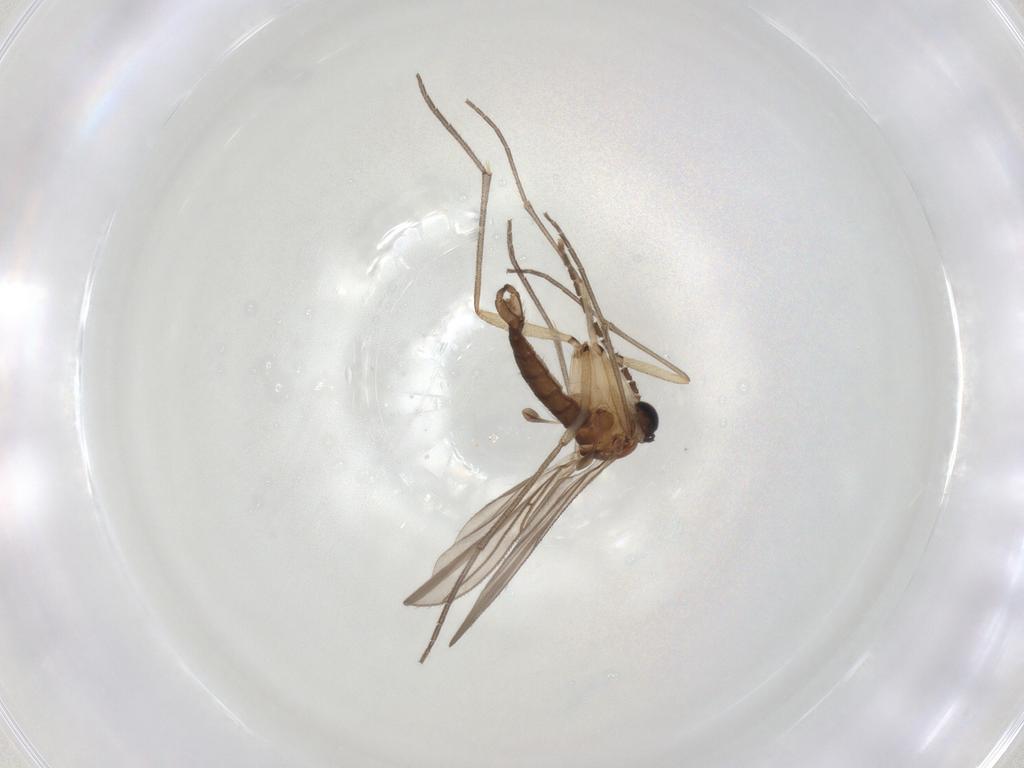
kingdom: Animalia
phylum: Arthropoda
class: Insecta
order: Diptera
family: Sciaridae
